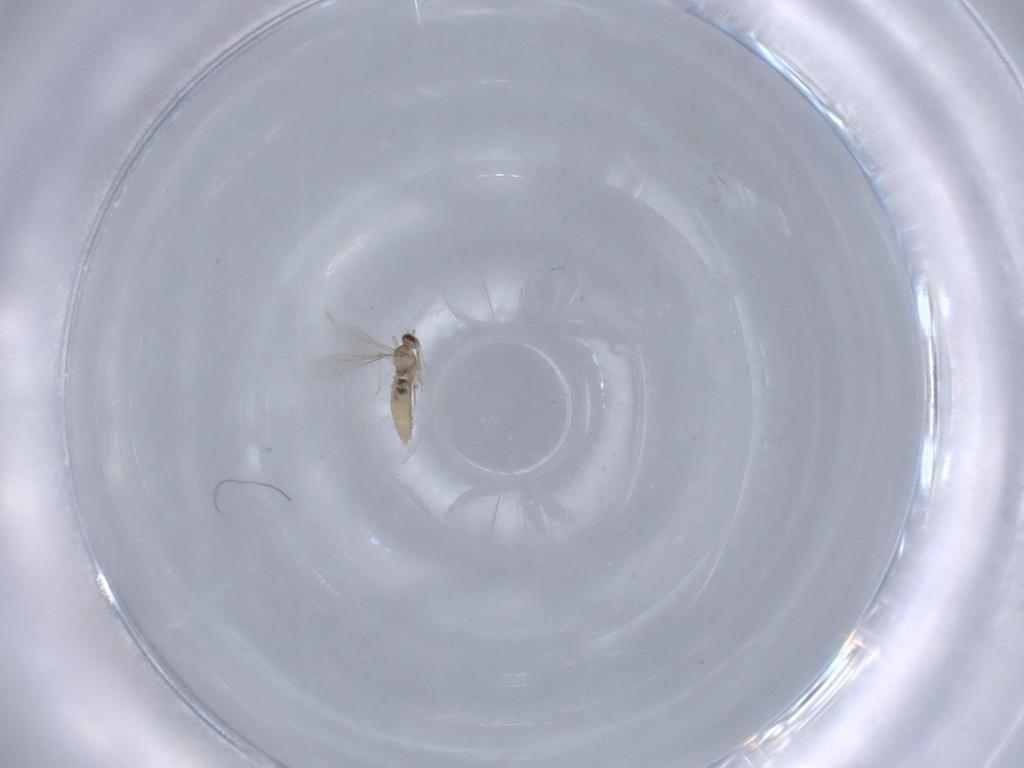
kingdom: Animalia
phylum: Arthropoda
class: Insecta
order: Diptera
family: Cecidomyiidae
